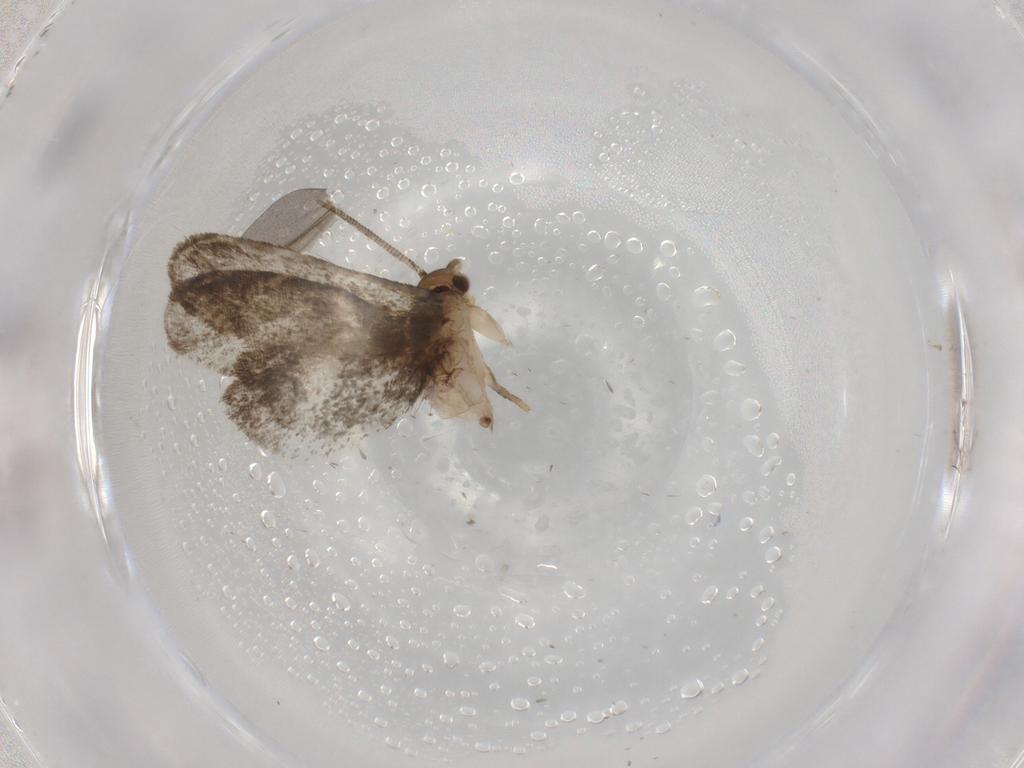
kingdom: Animalia
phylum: Arthropoda
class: Insecta
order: Lepidoptera
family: Dryadaulidae
